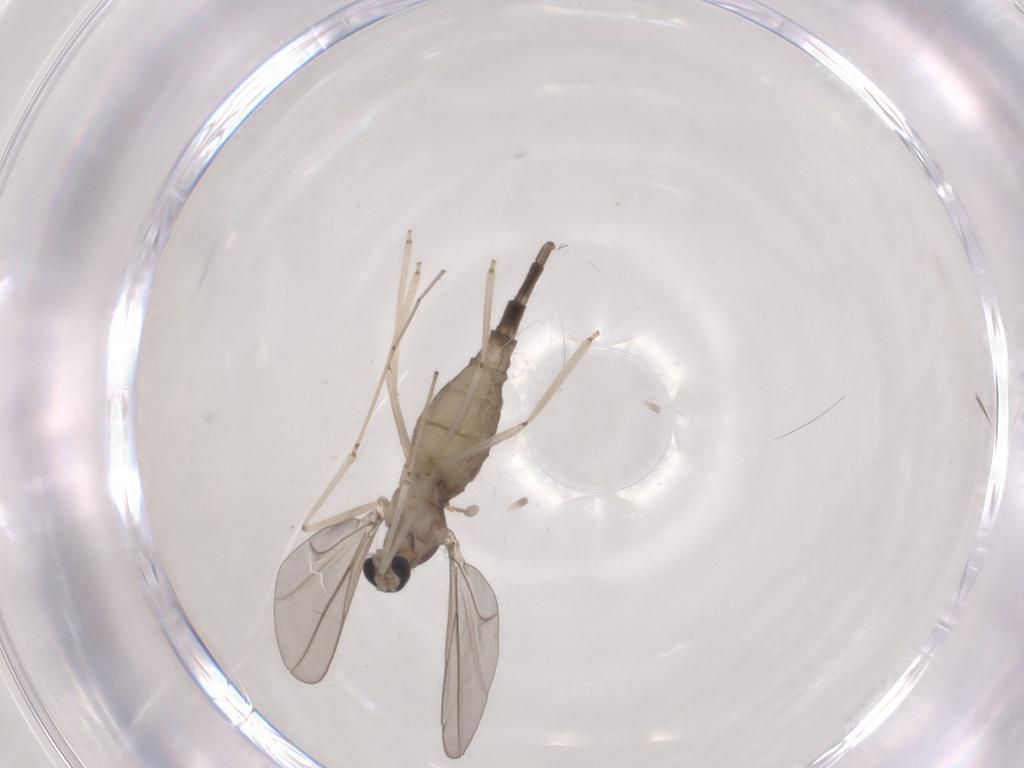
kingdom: Animalia
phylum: Arthropoda
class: Insecta
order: Diptera
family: Cecidomyiidae
